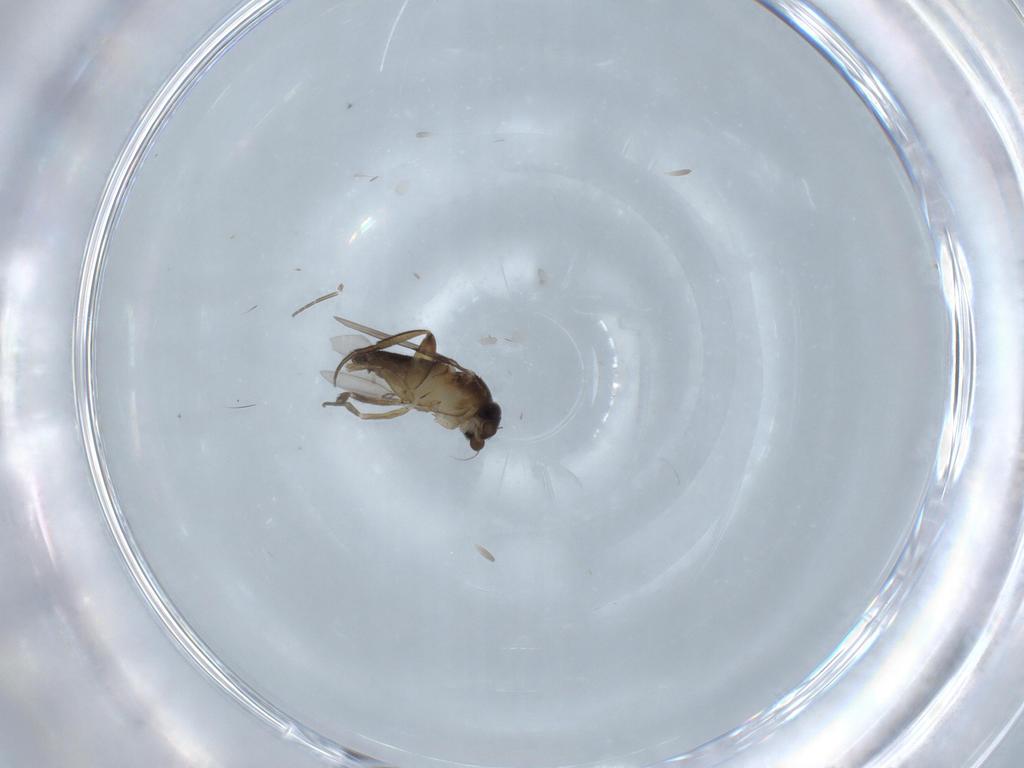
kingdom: Animalia
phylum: Arthropoda
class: Insecta
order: Diptera
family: Phoridae
